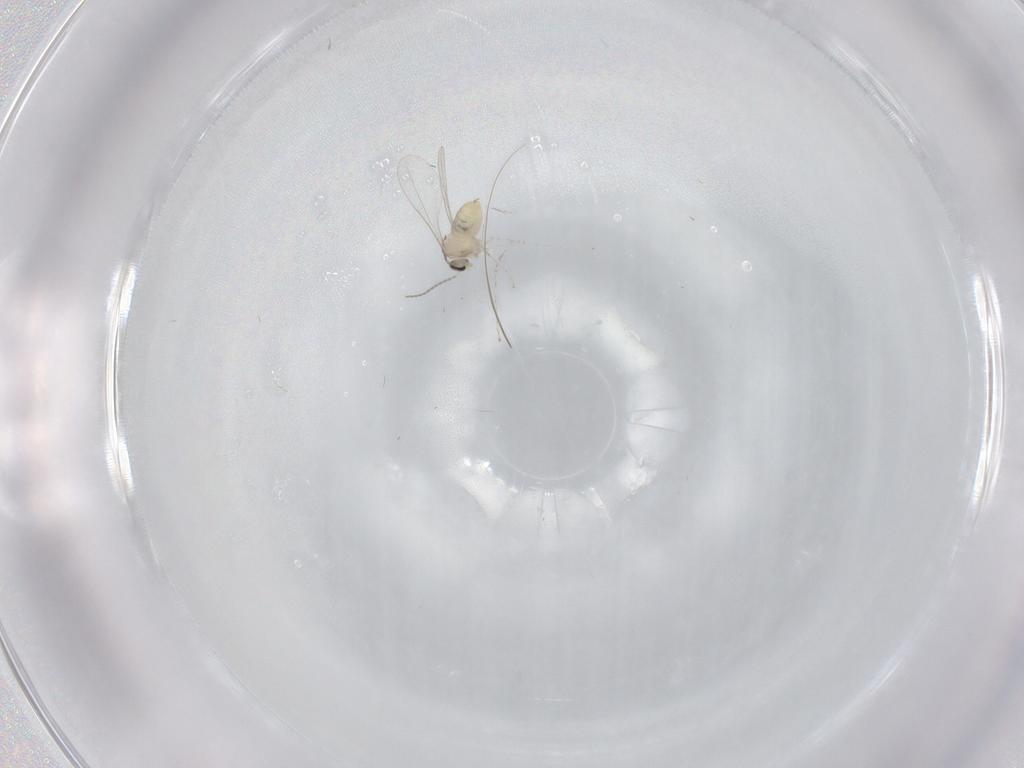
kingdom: Animalia
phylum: Arthropoda
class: Insecta
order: Diptera
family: Cecidomyiidae
